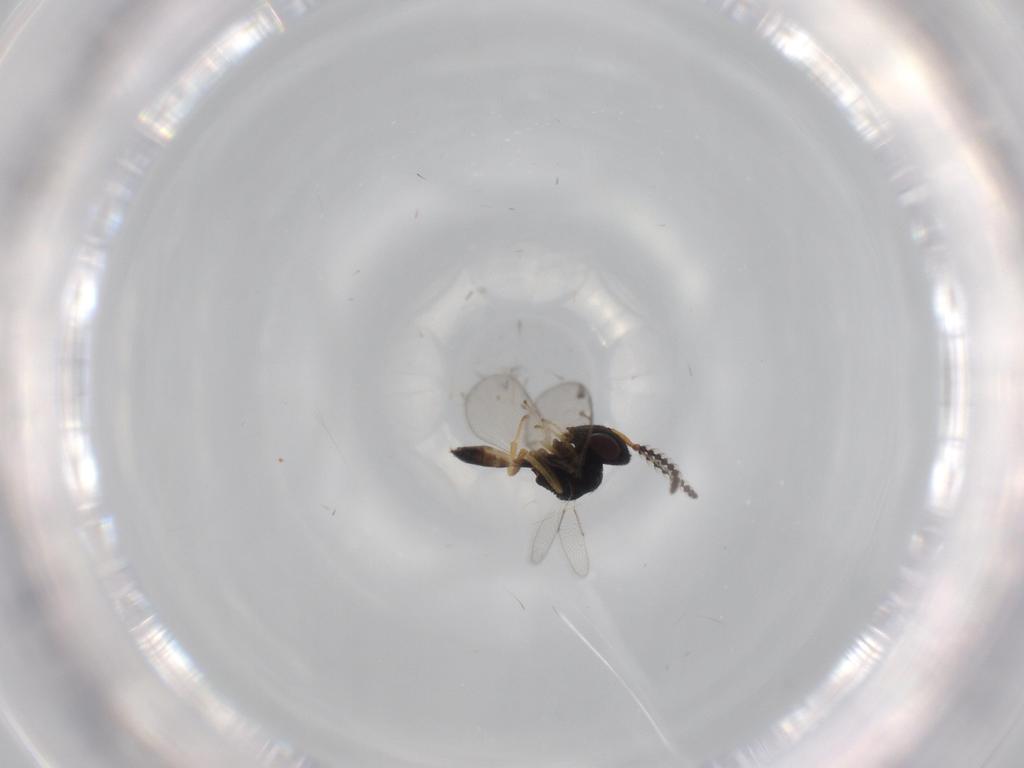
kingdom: Animalia
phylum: Arthropoda
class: Insecta
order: Hymenoptera
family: Pteromalidae
